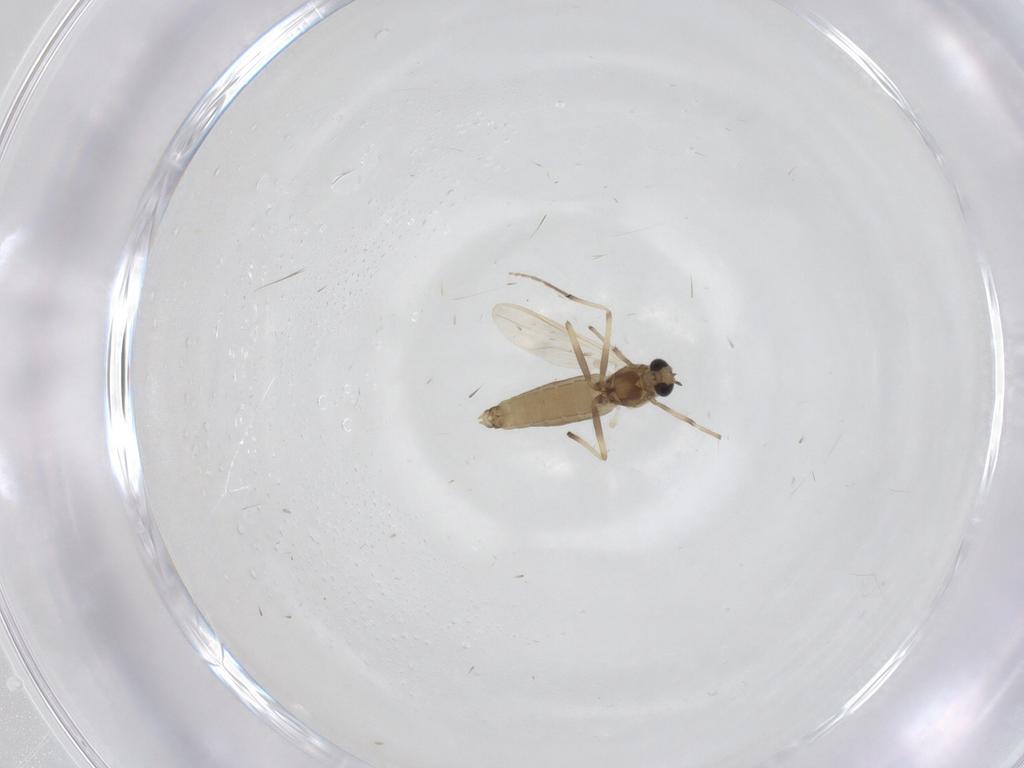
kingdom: Animalia
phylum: Arthropoda
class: Insecta
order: Diptera
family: Chironomidae
